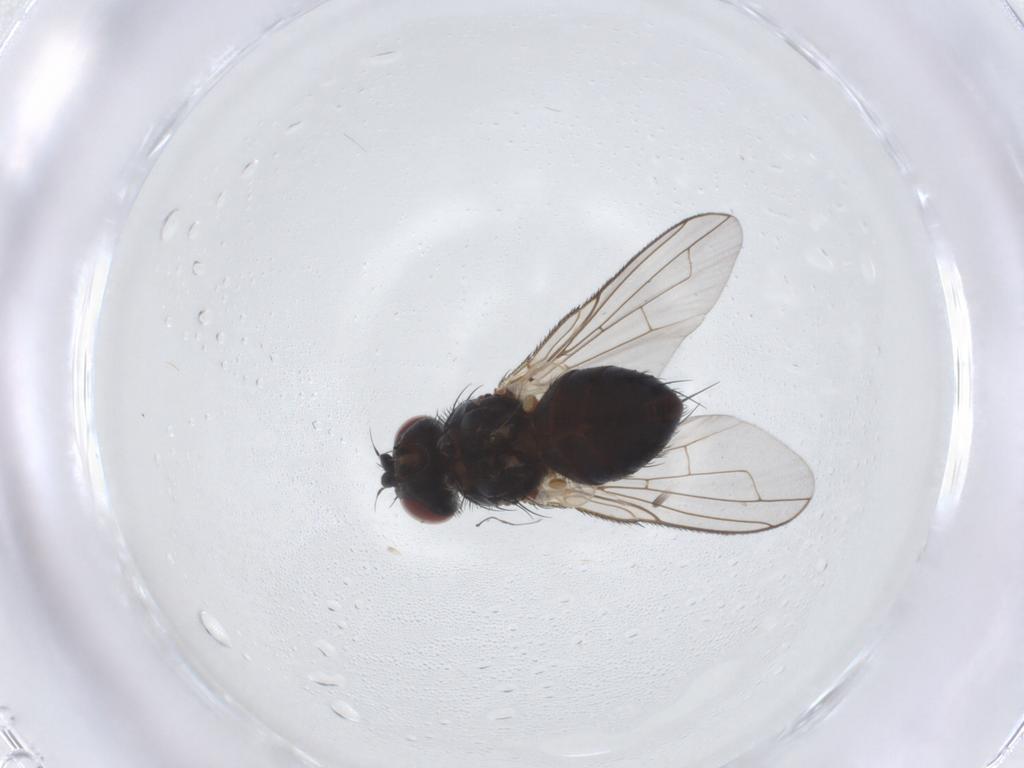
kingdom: Animalia
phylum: Arthropoda
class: Insecta
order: Diptera
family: Tachinidae
